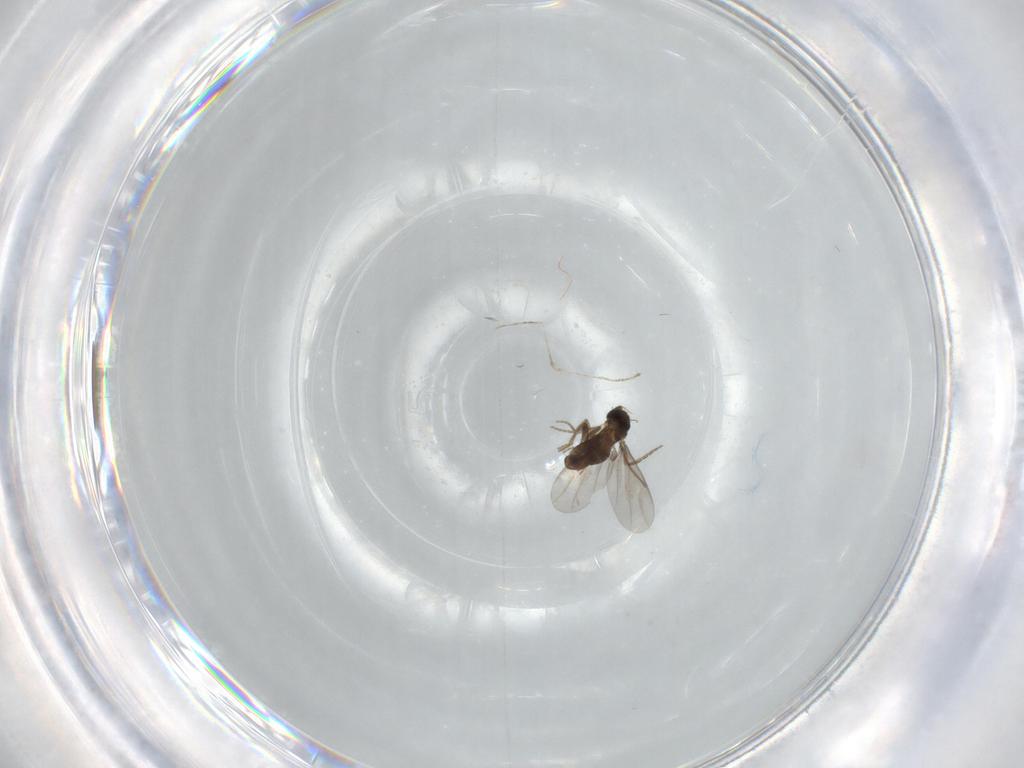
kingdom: Animalia
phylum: Arthropoda
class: Insecta
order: Diptera
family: Cecidomyiidae
